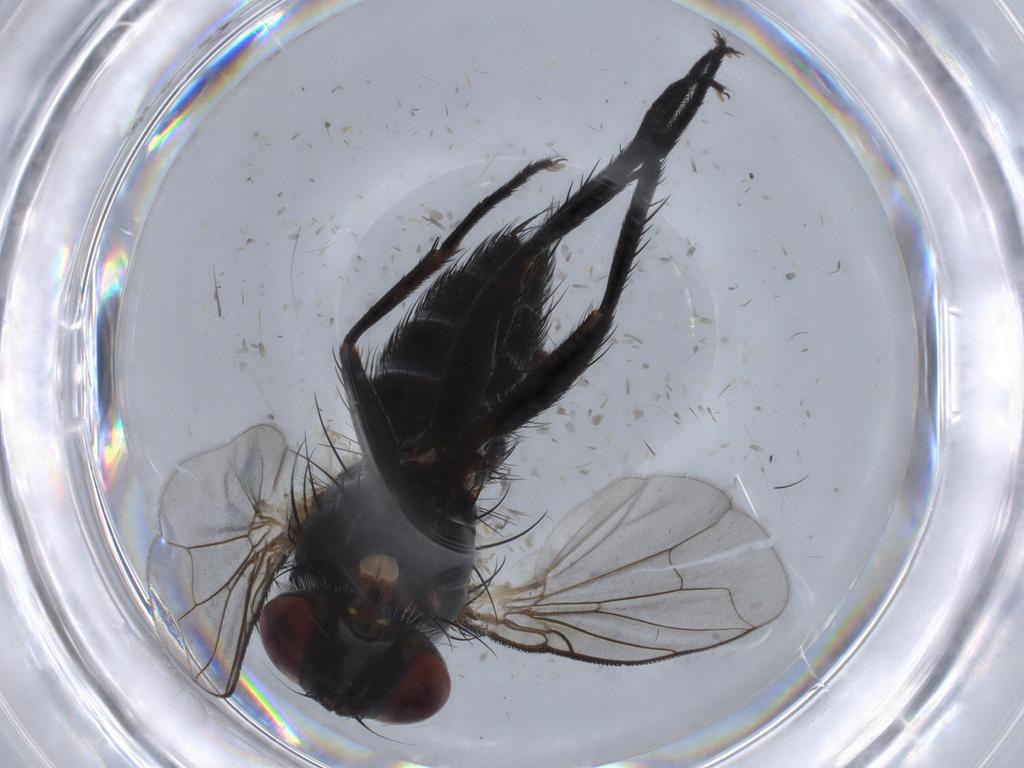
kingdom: Animalia
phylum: Arthropoda
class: Insecta
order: Diptera
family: Tachinidae
